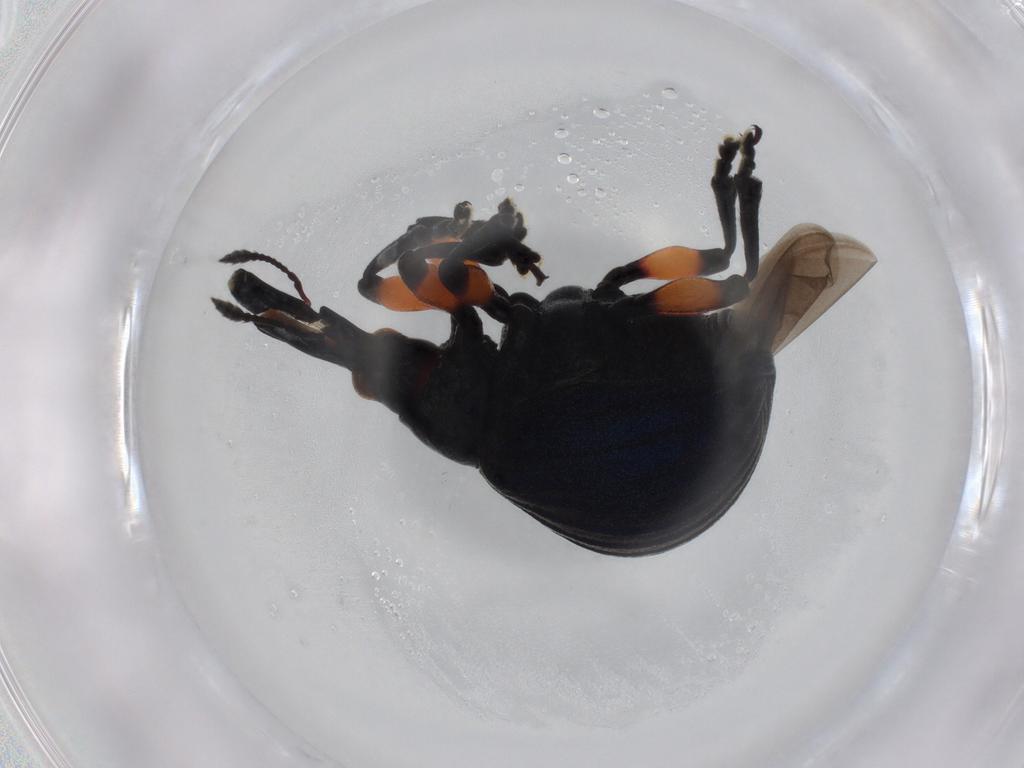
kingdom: Animalia
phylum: Arthropoda
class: Insecta
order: Coleoptera
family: Brentidae
